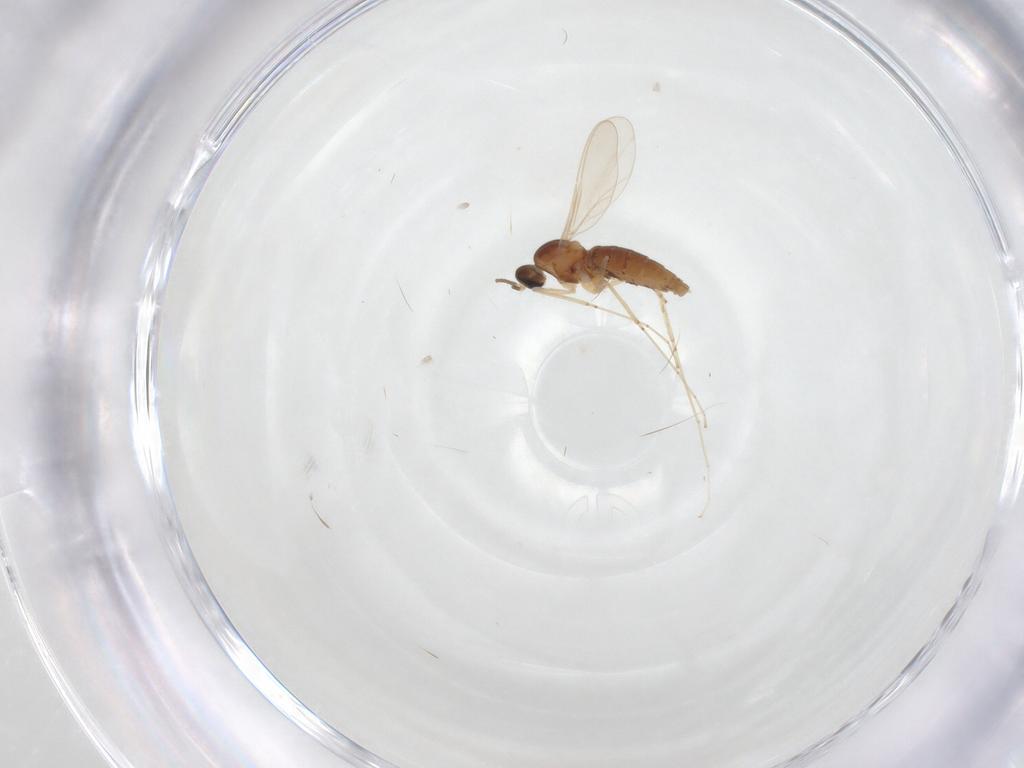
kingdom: Animalia
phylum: Arthropoda
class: Insecta
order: Diptera
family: Cecidomyiidae
